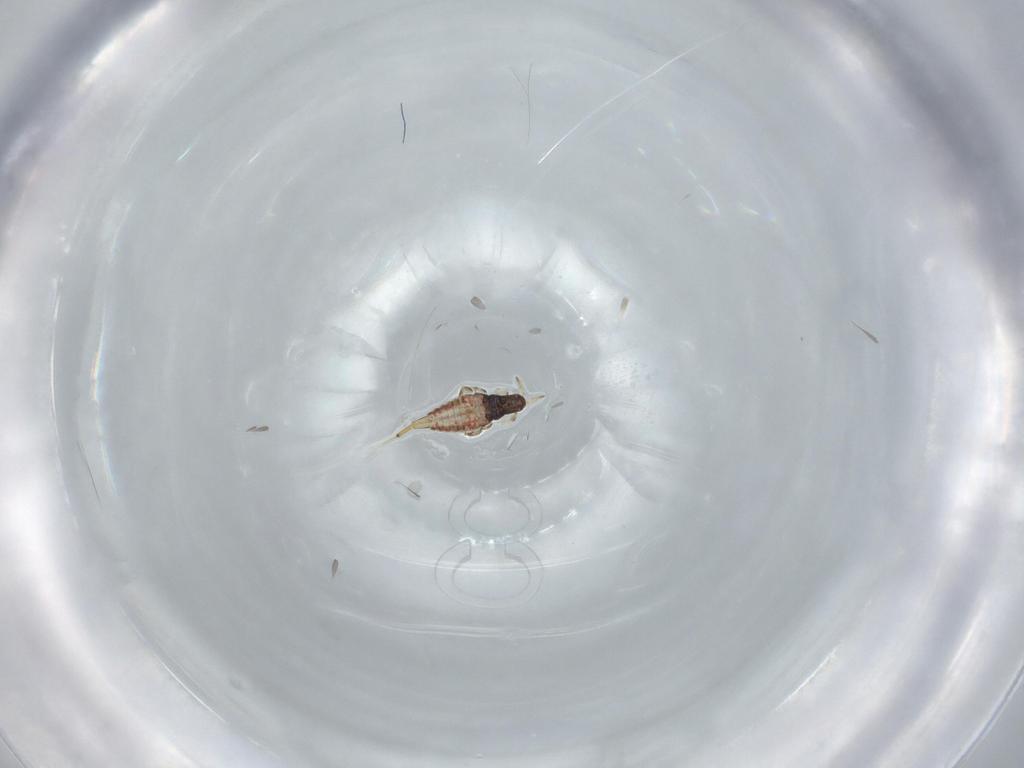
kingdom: Animalia
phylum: Arthropoda
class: Insecta
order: Thysanoptera
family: Phlaeothripidae
